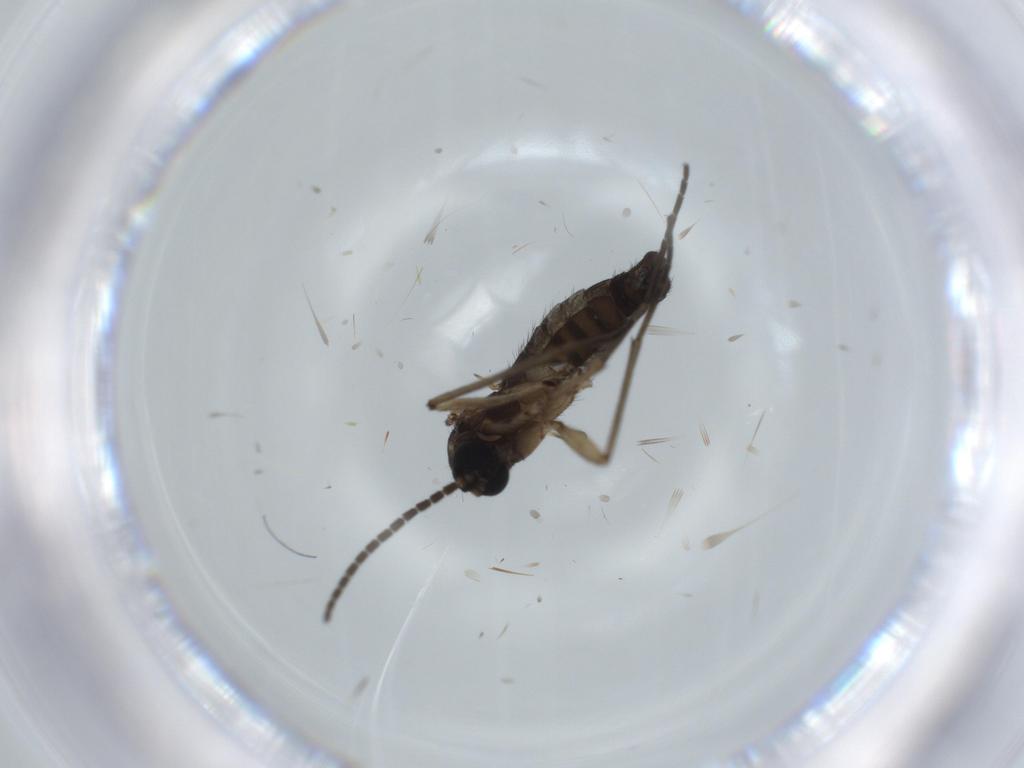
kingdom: Animalia
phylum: Arthropoda
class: Insecta
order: Diptera
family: Sciaridae
